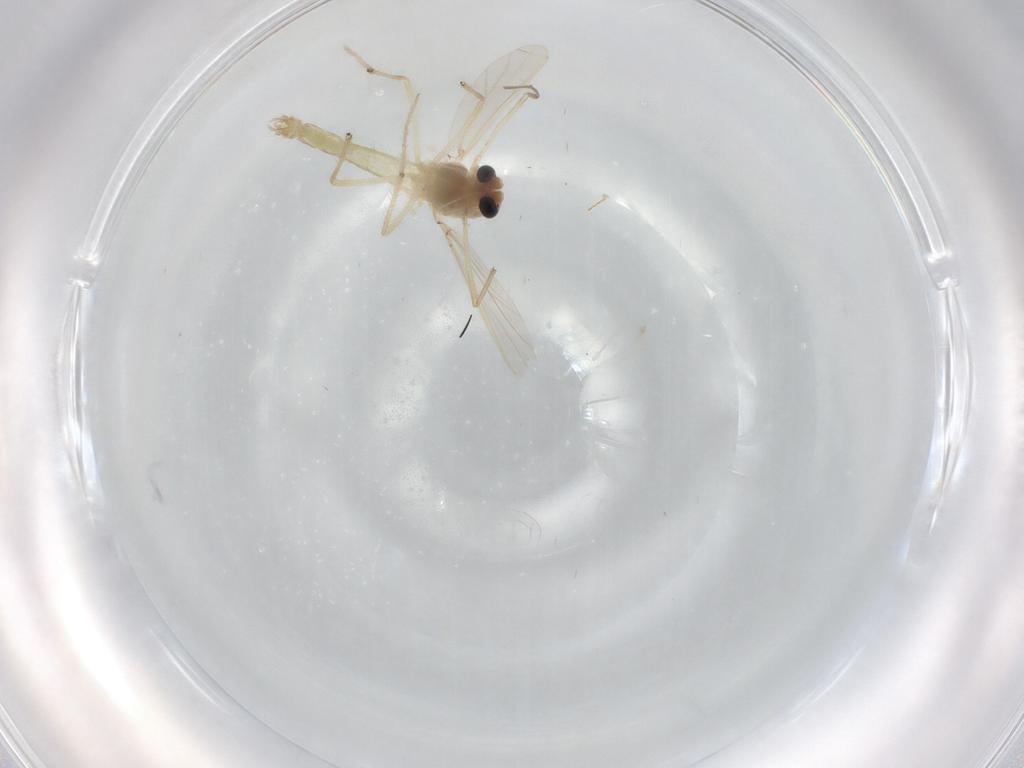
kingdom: Animalia
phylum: Arthropoda
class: Insecta
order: Diptera
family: Chironomidae
